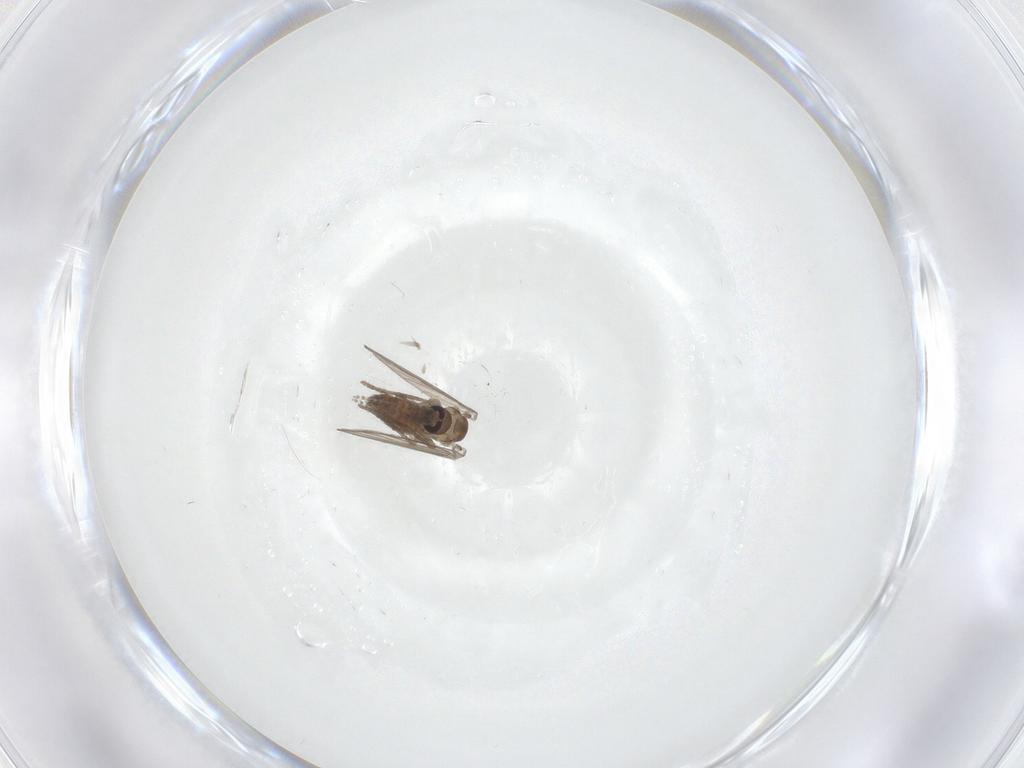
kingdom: Animalia
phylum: Arthropoda
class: Insecta
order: Diptera
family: Psychodidae
